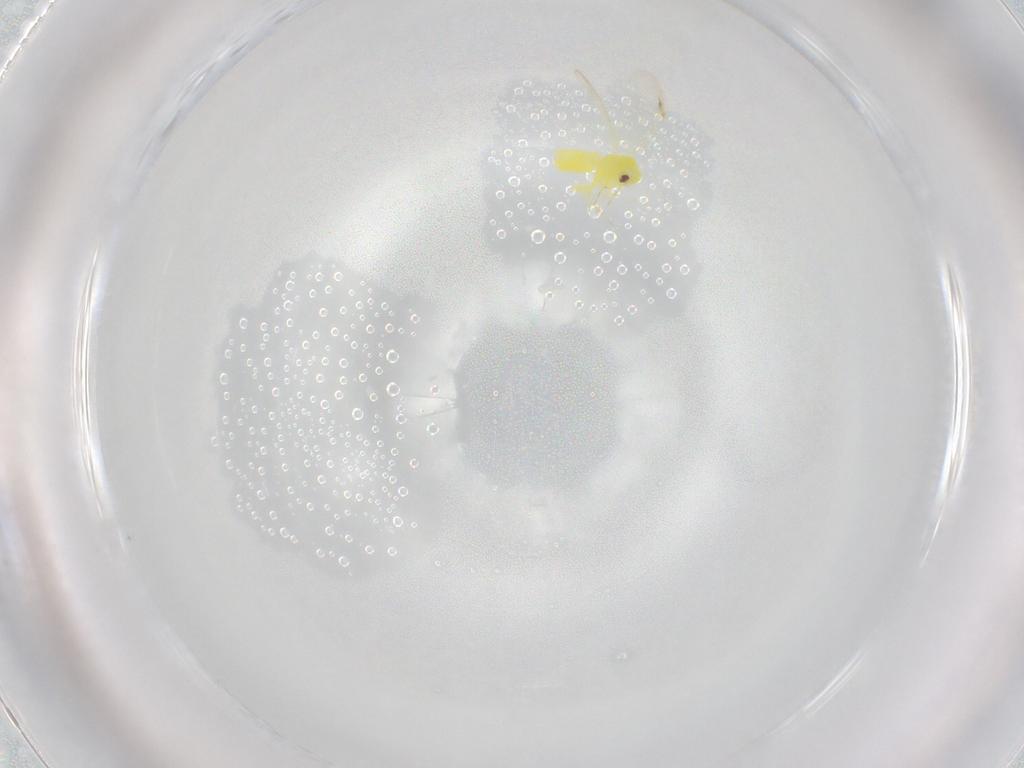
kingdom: Animalia
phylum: Arthropoda
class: Insecta
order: Hemiptera
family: Aleyrodidae
